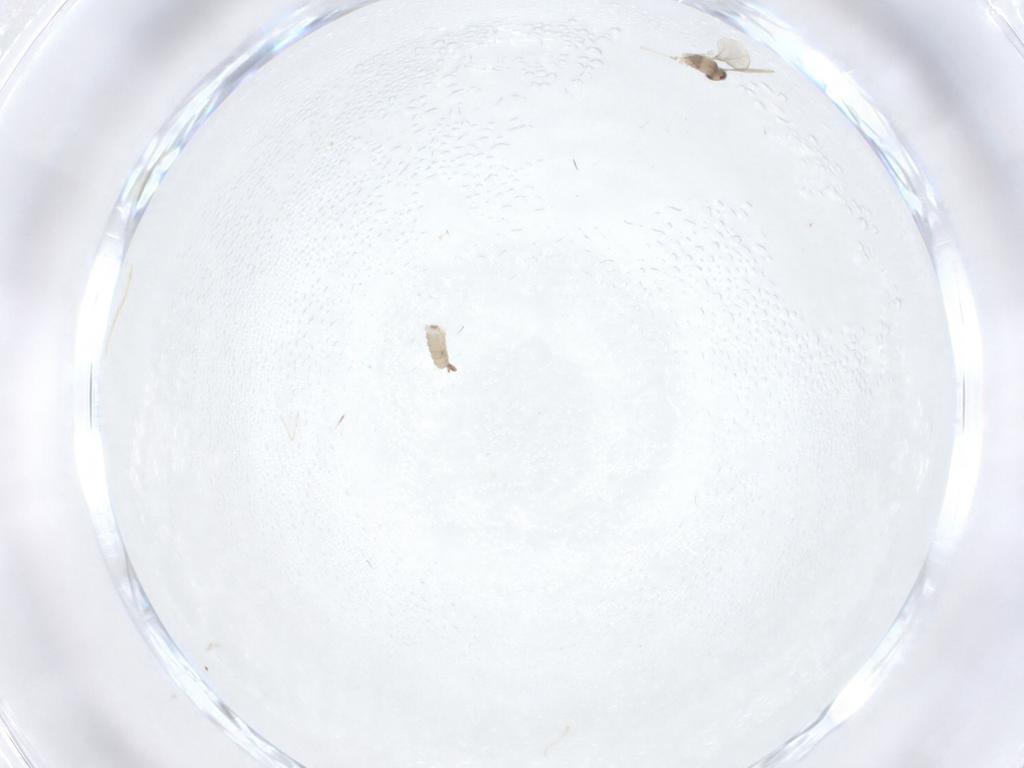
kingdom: Animalia
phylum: Arthropoda
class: Insecta
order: Diptera
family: Cecidomyiidae
